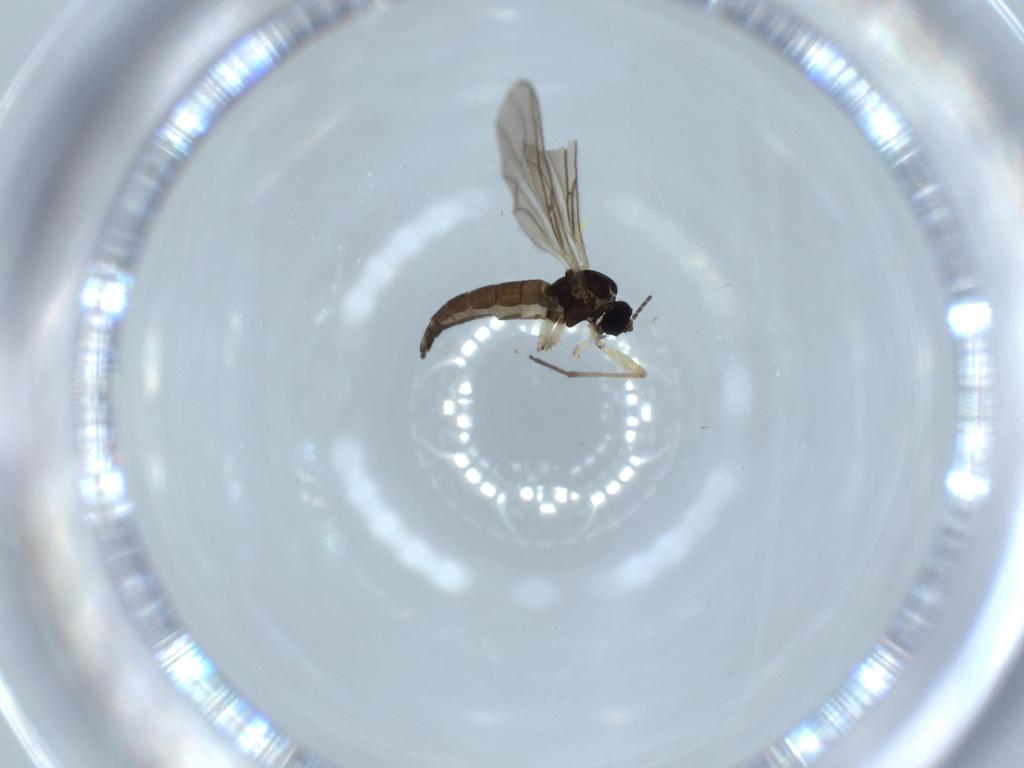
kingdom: Animalia
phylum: Arthropoda
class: Insecta
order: Diptera
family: Sciaridae
